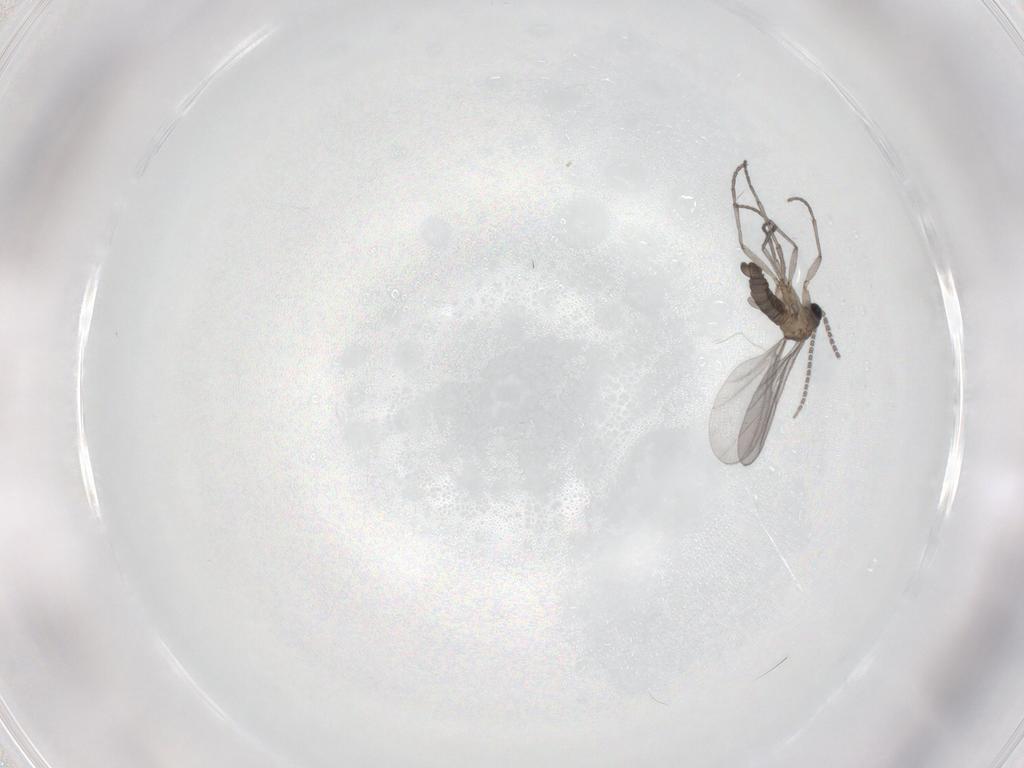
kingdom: Animalia
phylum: Arthropoda
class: Insecta
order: Diptera
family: Sciaridae
